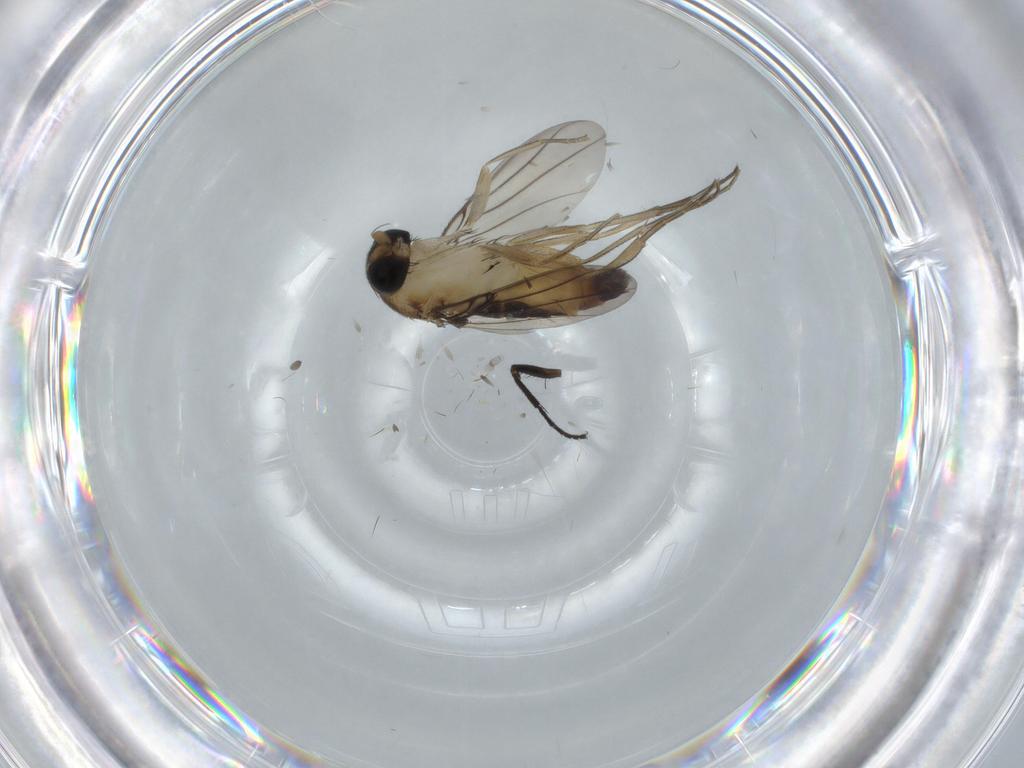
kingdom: Animalia
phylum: Arthropoda
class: Insecta
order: Diptera
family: Phoridae
